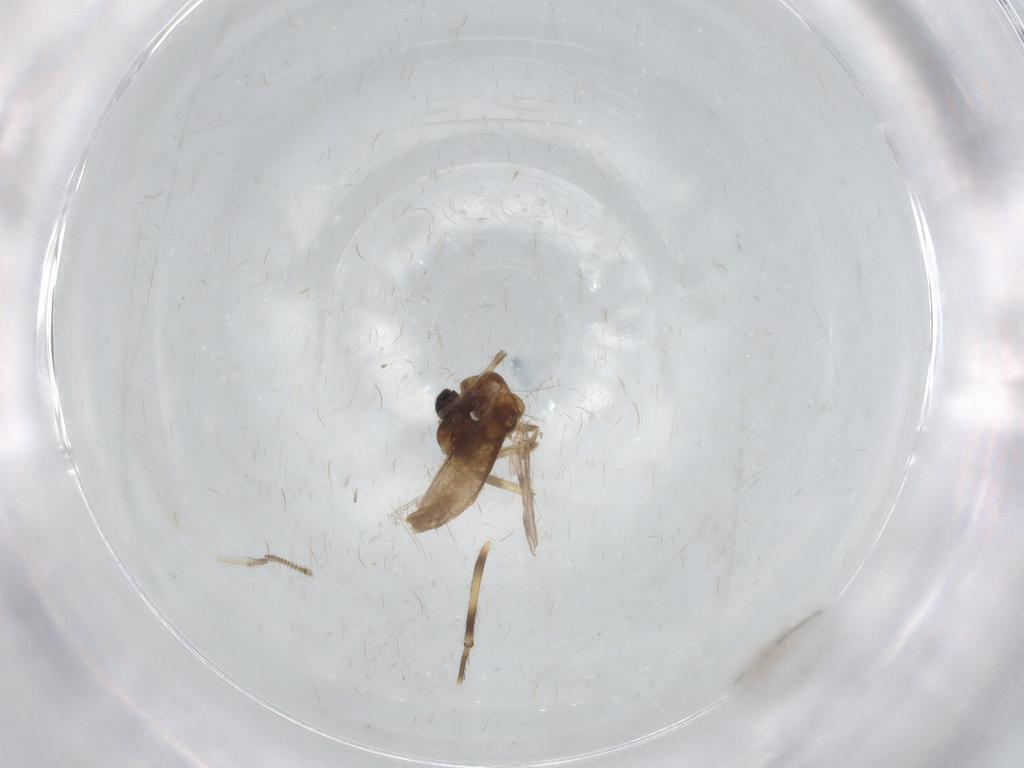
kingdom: Animalia
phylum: Arthropoda
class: Insecta
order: Diptera
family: Chironomidae
